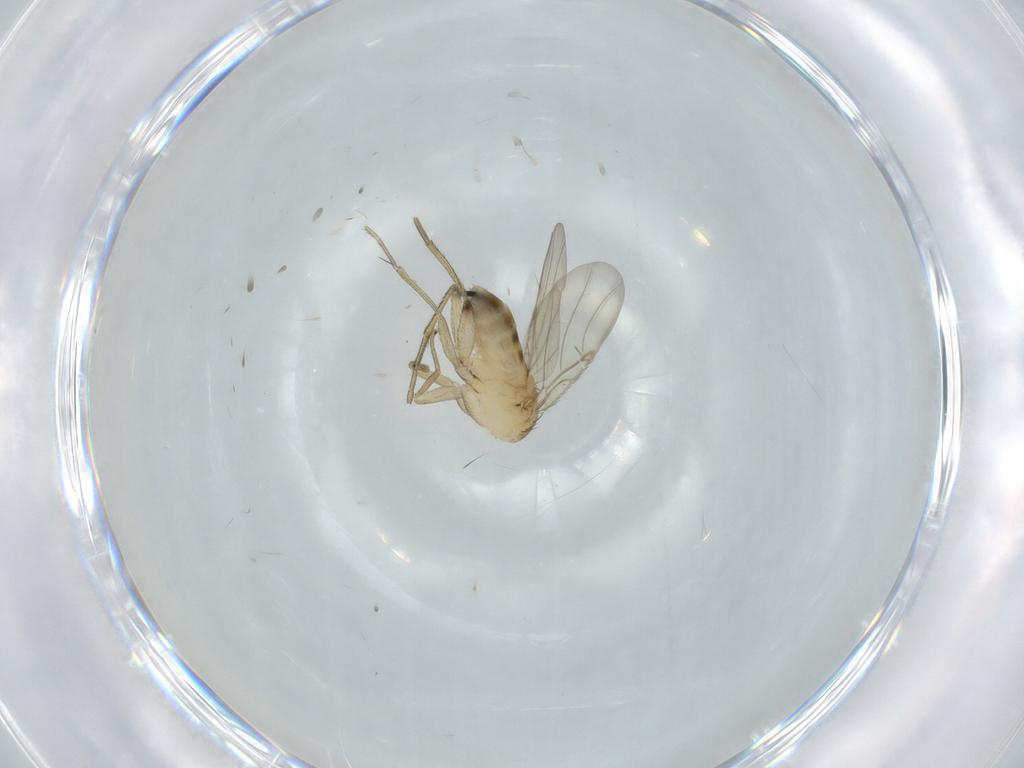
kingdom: Animalia
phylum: Arthropoda
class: Insecta
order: Diptera
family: Phoridae
